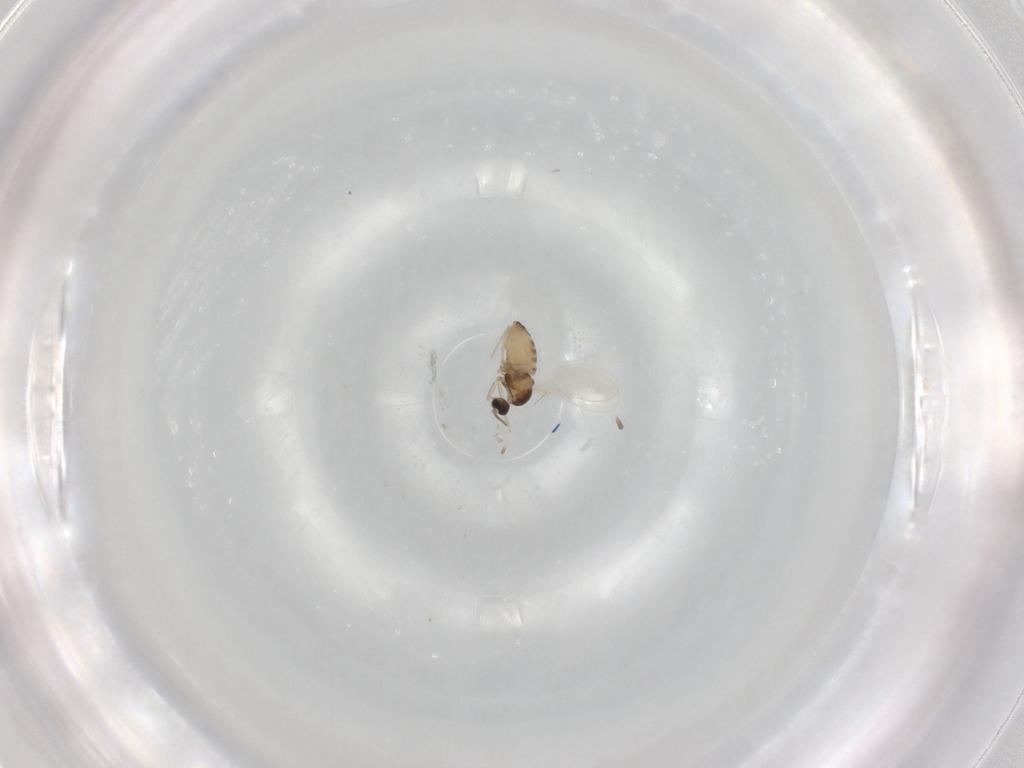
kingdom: Animalia
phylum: Arthropoda
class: Insecta
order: Diptera
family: Cecidomyiidae
